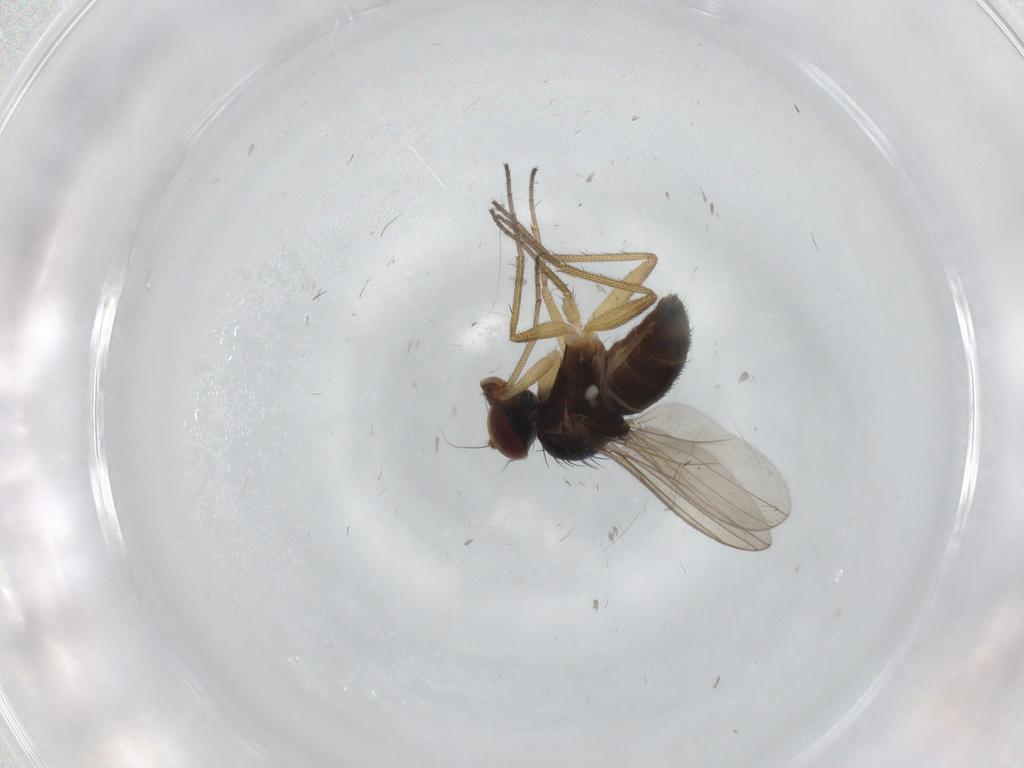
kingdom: Animalia
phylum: Arthropoda
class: Insecta
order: Diptera
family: Dolichopodidae
